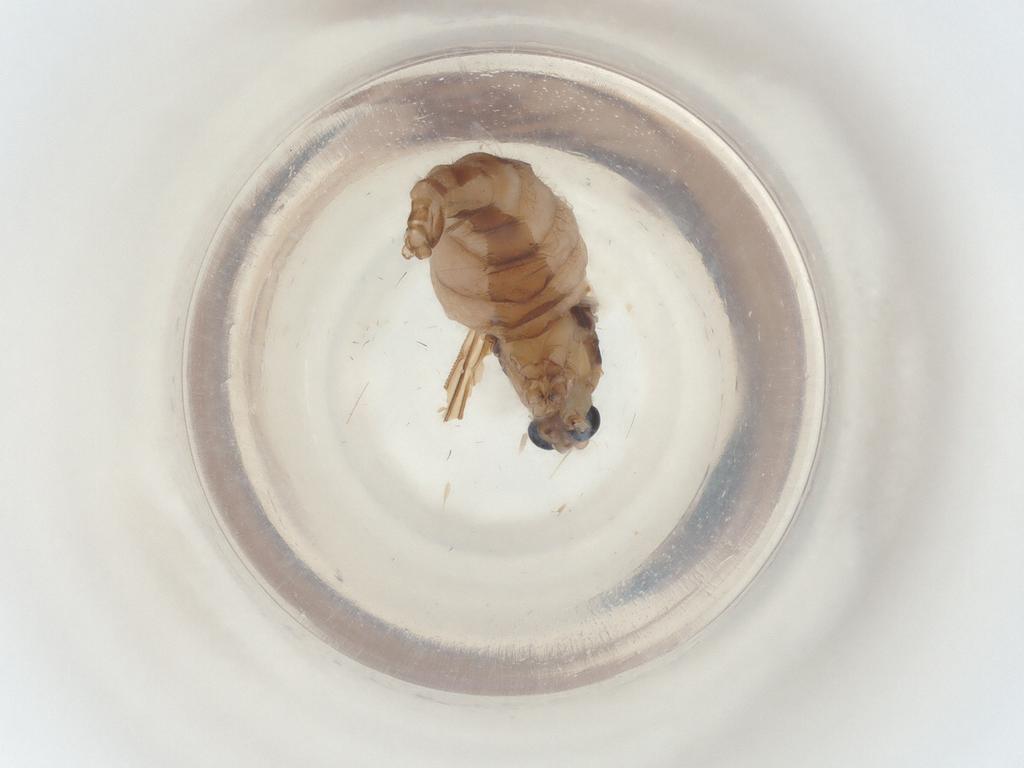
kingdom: Animalia
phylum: Arthropoda
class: Insecta
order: Diptera
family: Sciaridae
